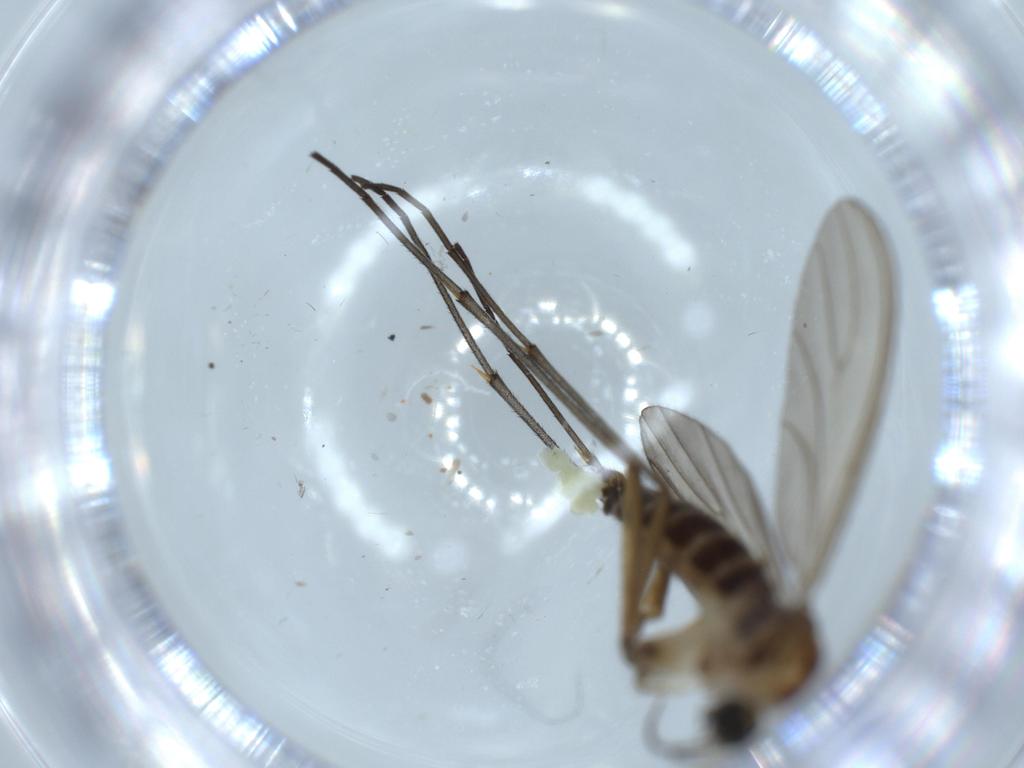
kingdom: Animalia
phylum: Arthropoda
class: Insecta
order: Diptera
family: Sciaridae
